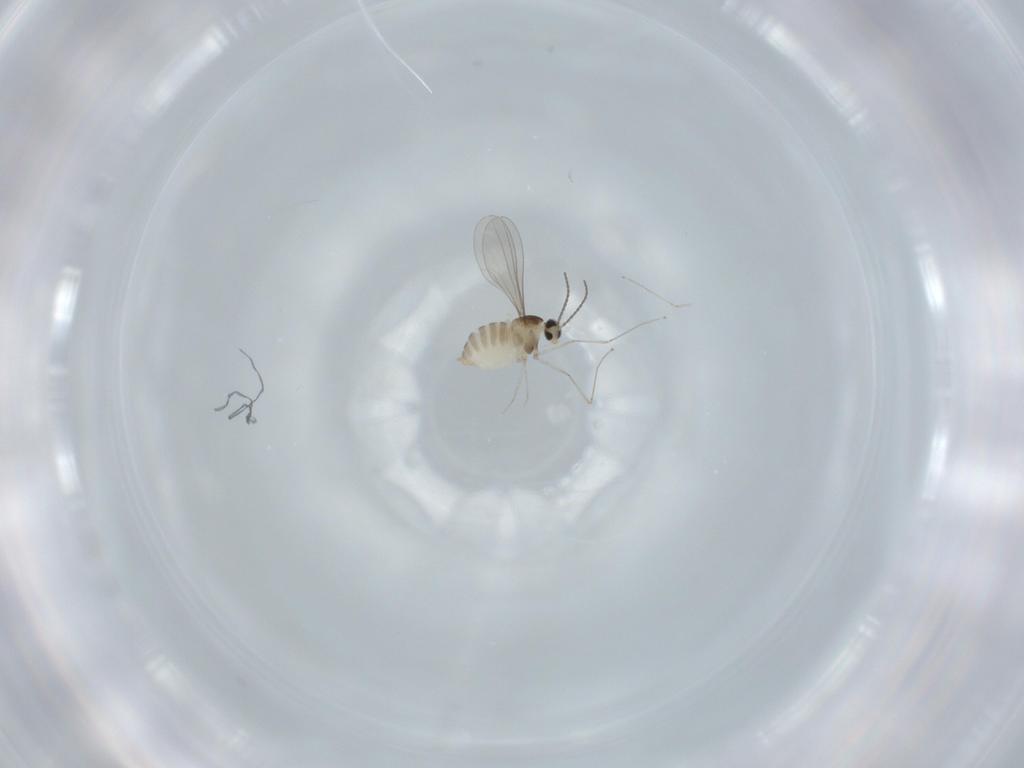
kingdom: Animalia
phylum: Arthropoda
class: Insecta
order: Diptera
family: Cecidomyiidae
